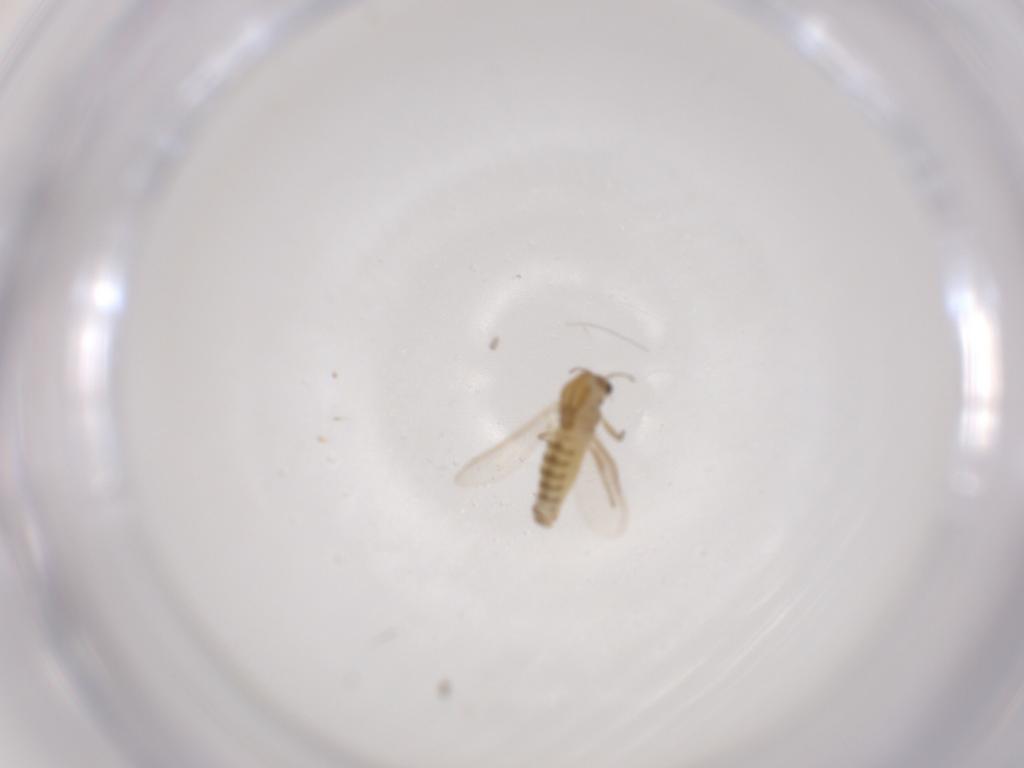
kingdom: Animalia
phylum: Arthropoda
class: Insecta
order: Diptera
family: Chironomidae
